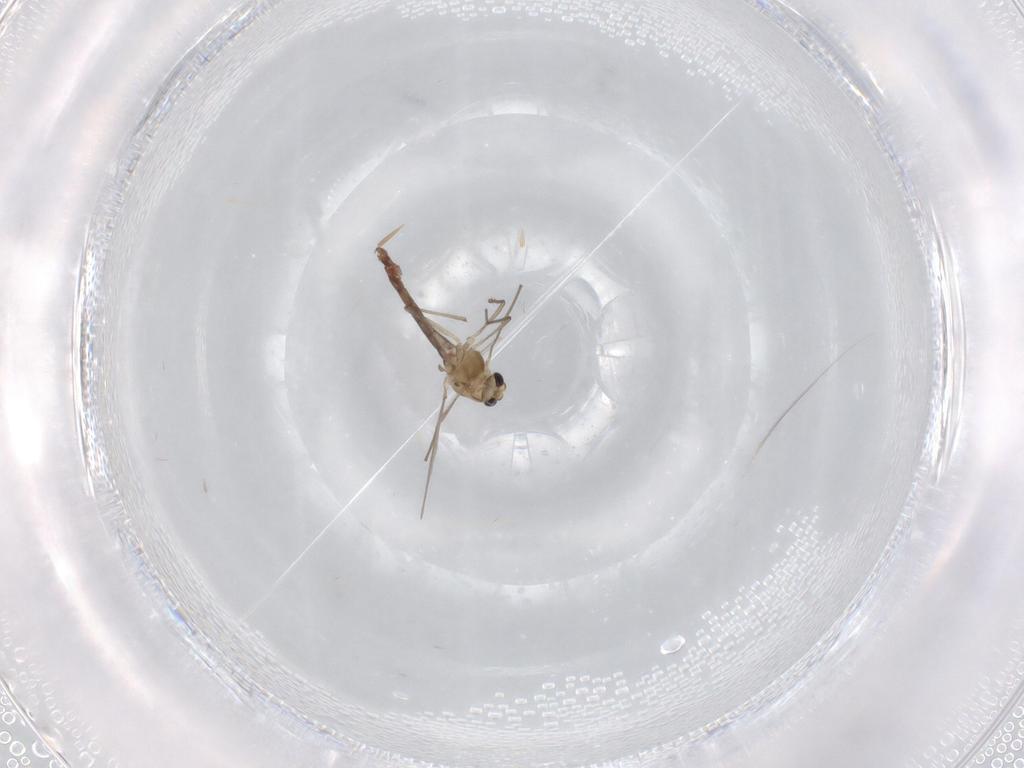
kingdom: Animalia
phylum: Arthropoda
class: Insecta
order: Diptera
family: Chironomidae
